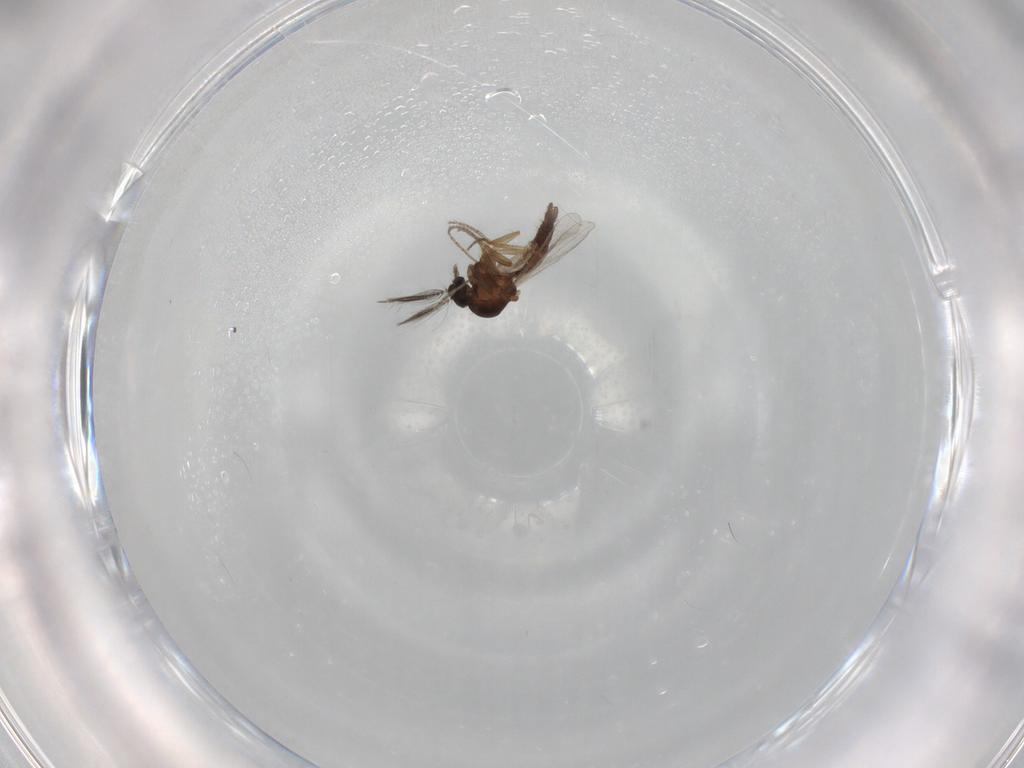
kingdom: Animalia
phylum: Arthropoda
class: Insecta
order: Diptera
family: Ceratopogonidae
